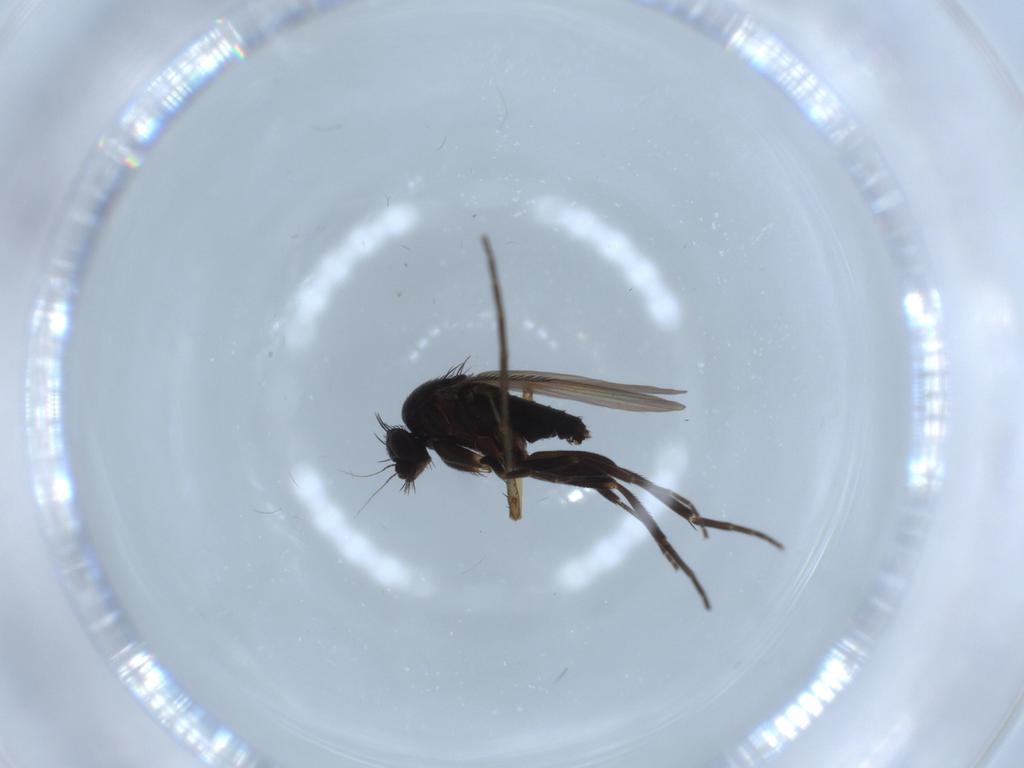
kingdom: Animalia
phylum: Arthropoda
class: Insecta
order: Diptera
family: Phoridae
